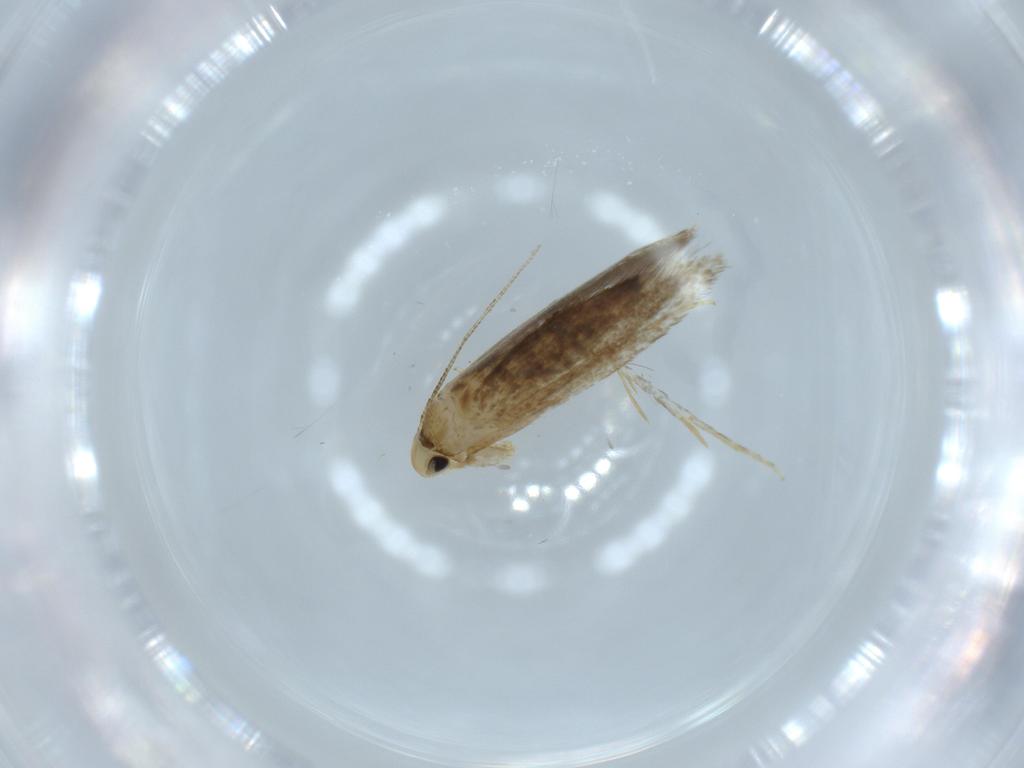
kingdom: Animalia
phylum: Arthropoda
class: Insecta
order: Lepidoptera
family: Tineidae
